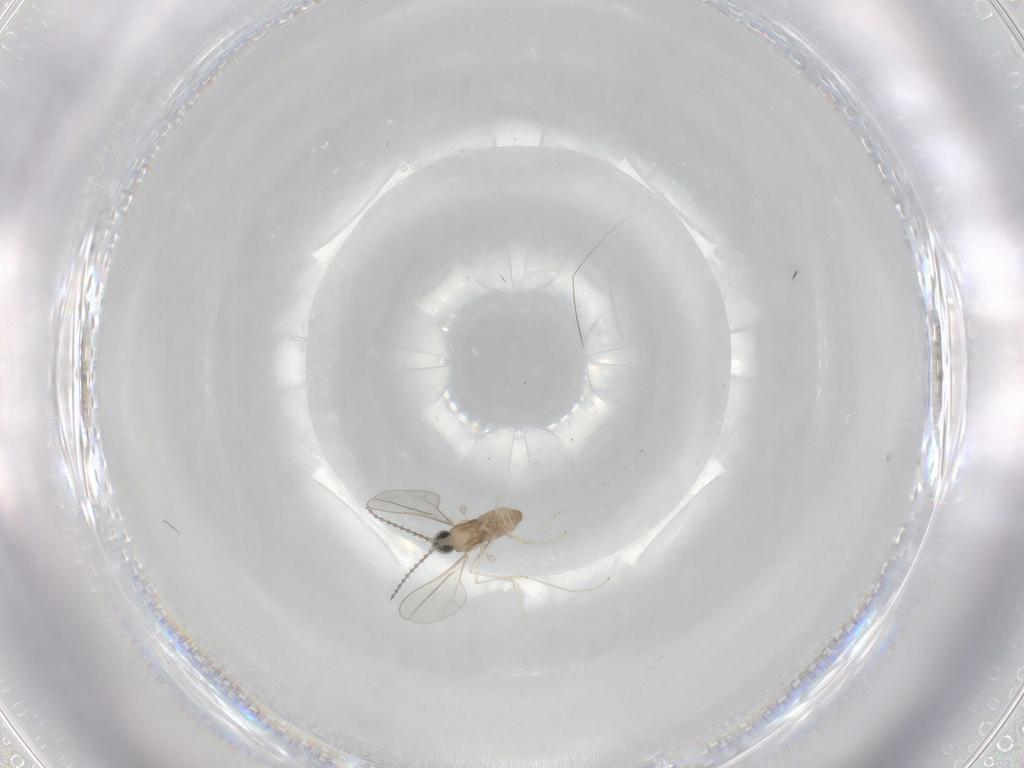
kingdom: Animalia
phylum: Arthropoda
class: Insecta
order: Diptera
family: Cecidomyiidae
